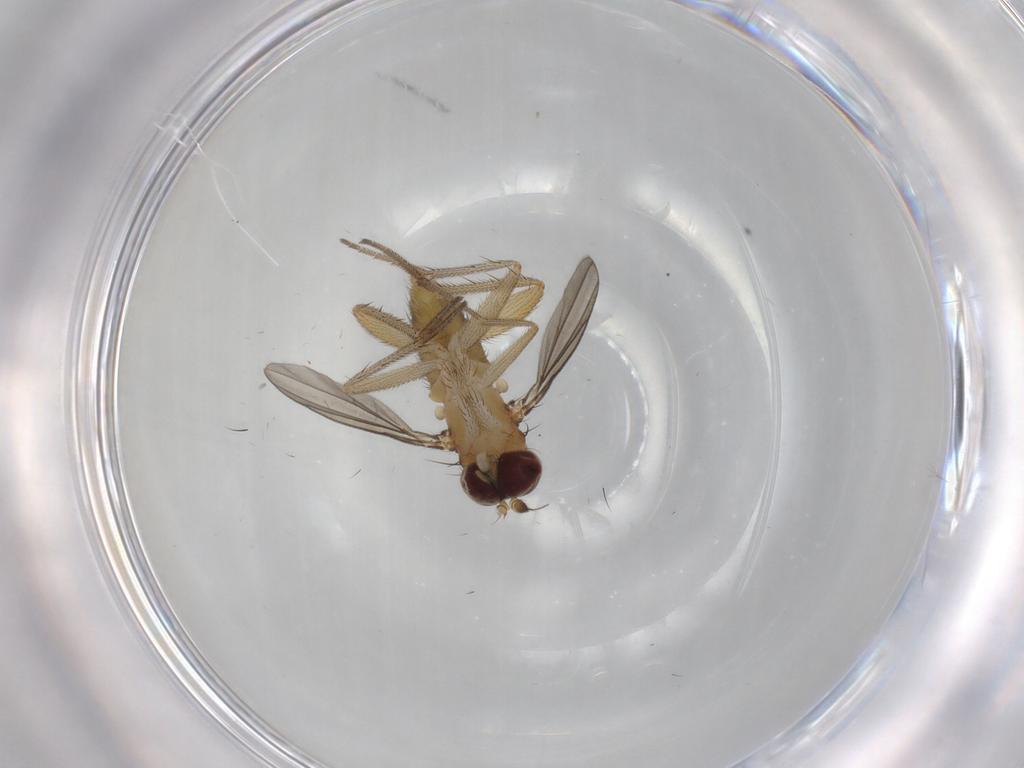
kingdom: Animalia
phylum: Arthropoda
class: Insecta
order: Diptera
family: Dolichopodidae
